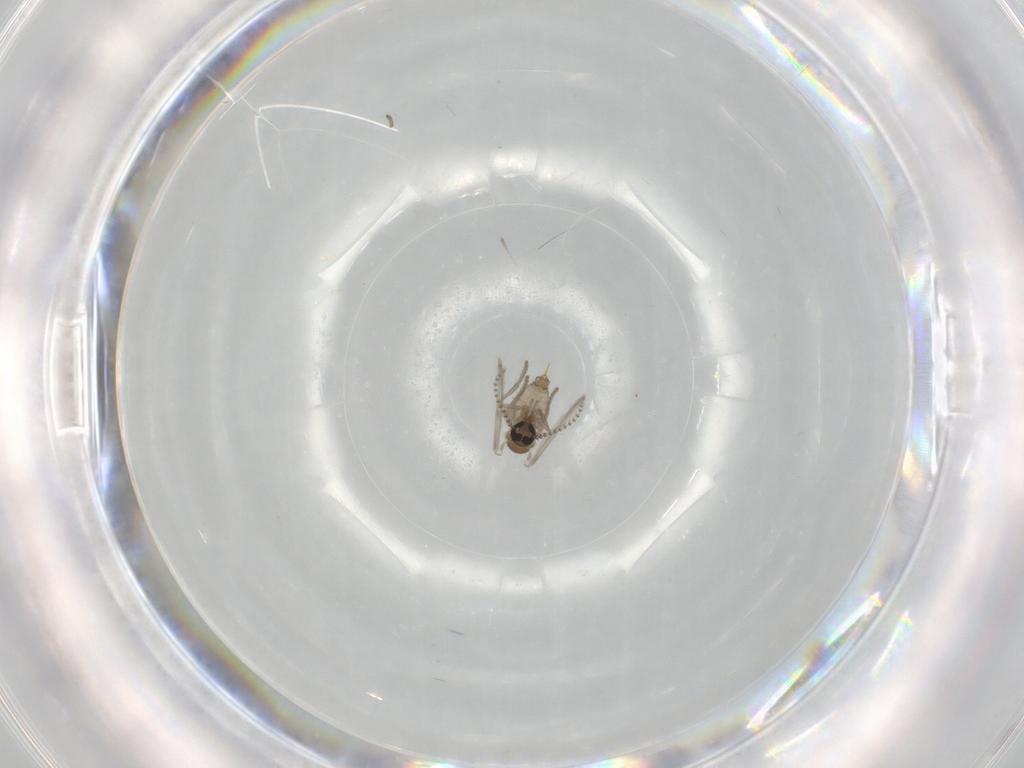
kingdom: Animalia
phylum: Arthropoda
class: Insecta
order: Diptera
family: Psychodidae
